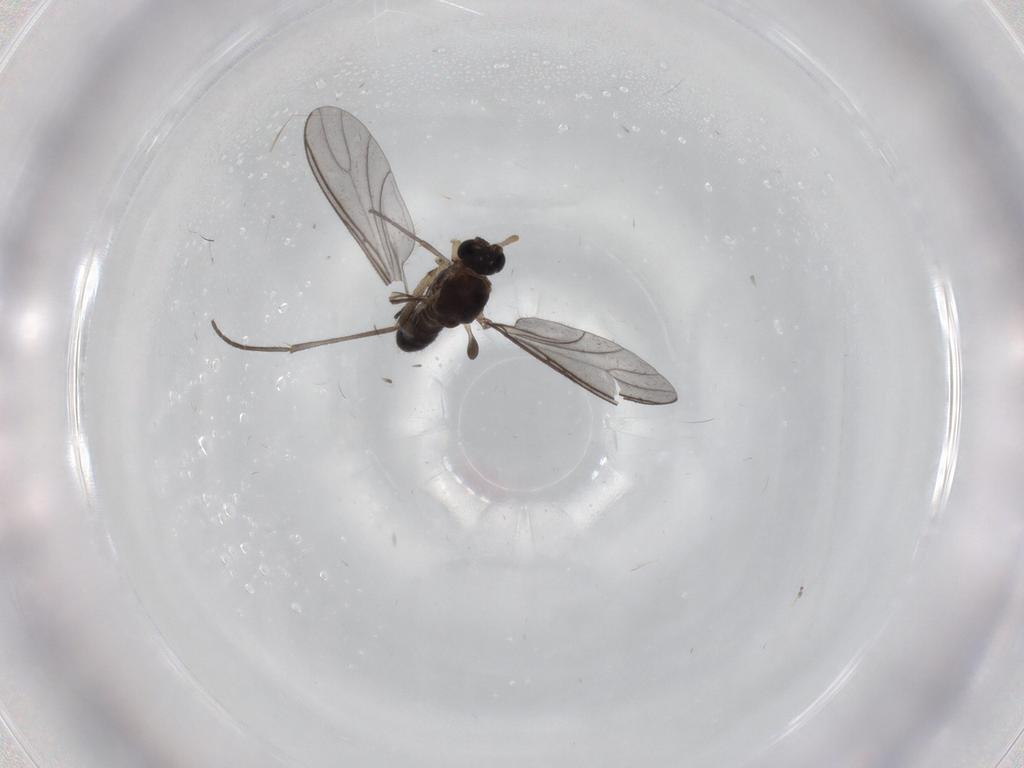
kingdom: Animalia
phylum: Arthropoda
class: Insecta
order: Diptera
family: Sciaridae
